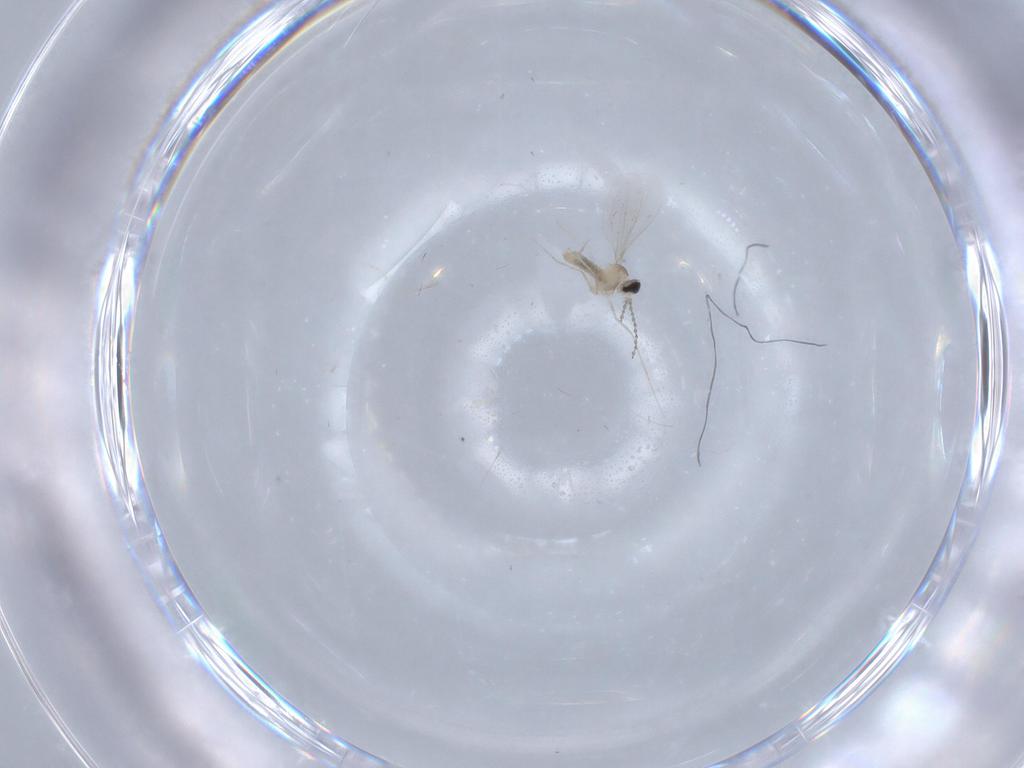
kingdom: Animalia
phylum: Arthropoda
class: Insecta
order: Diptera
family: Cecidomyiidae
